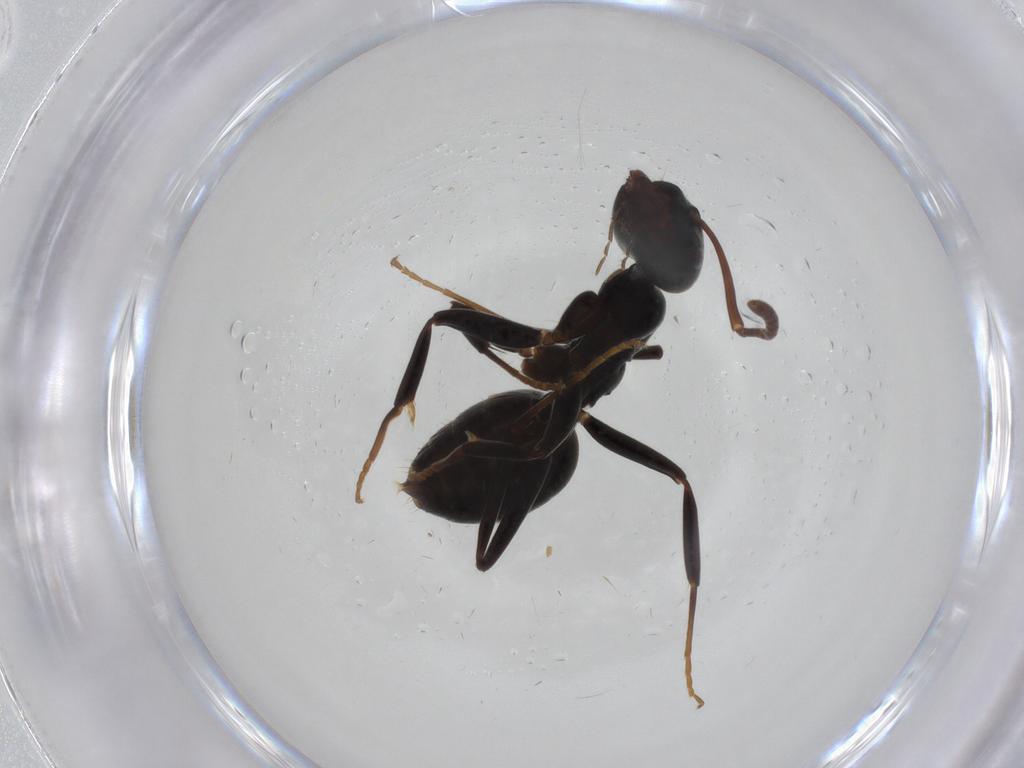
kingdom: Animalia
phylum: Arthropoda
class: Insecta
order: Hymenoptera
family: Formicidae
